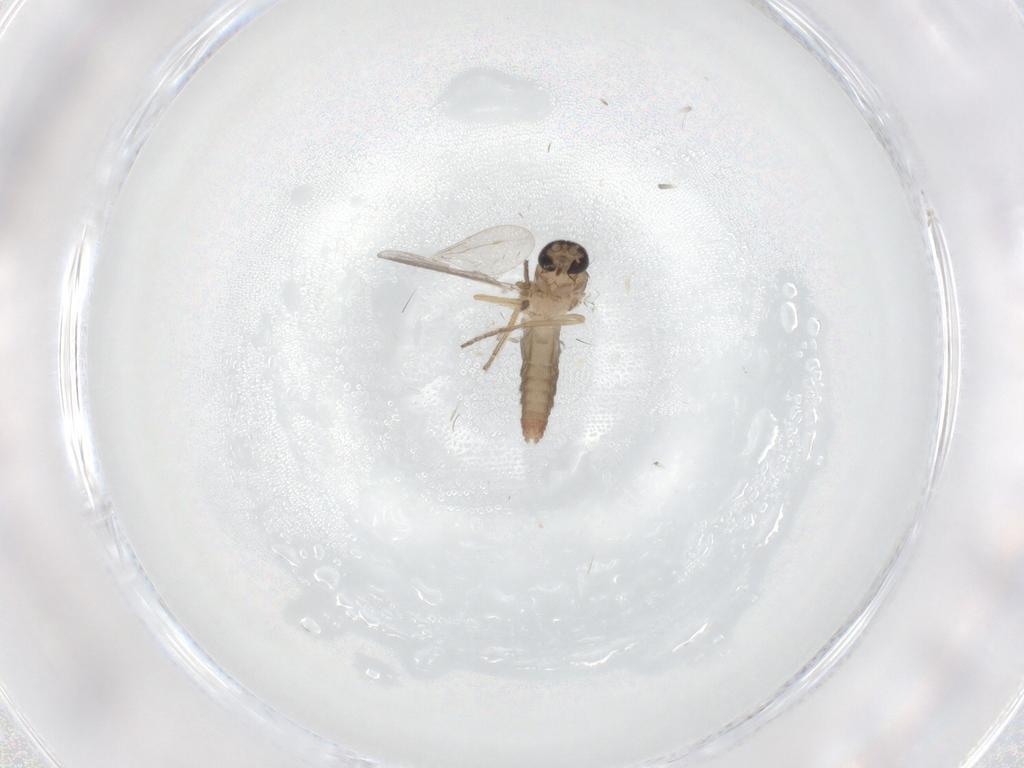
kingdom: Animalia
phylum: Arthropoda
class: Insecta
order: Diptera
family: Ceratopogonidae
